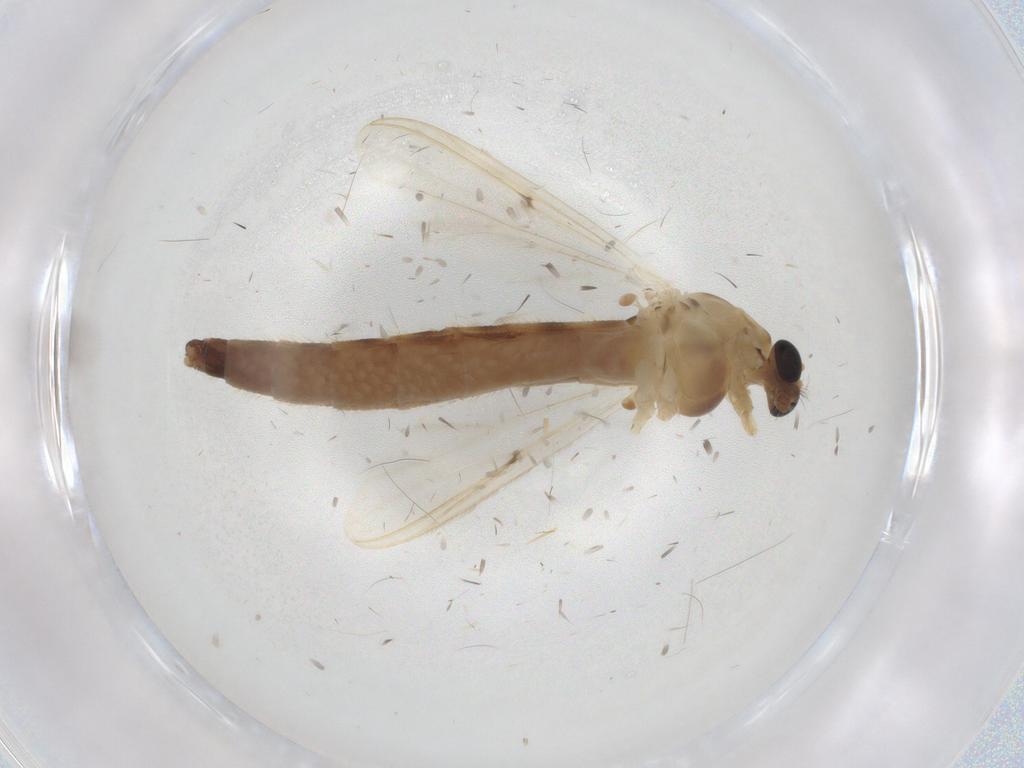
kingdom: Animalia
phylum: Arthropoda
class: Insecta
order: Diptera
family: Chironomidae
